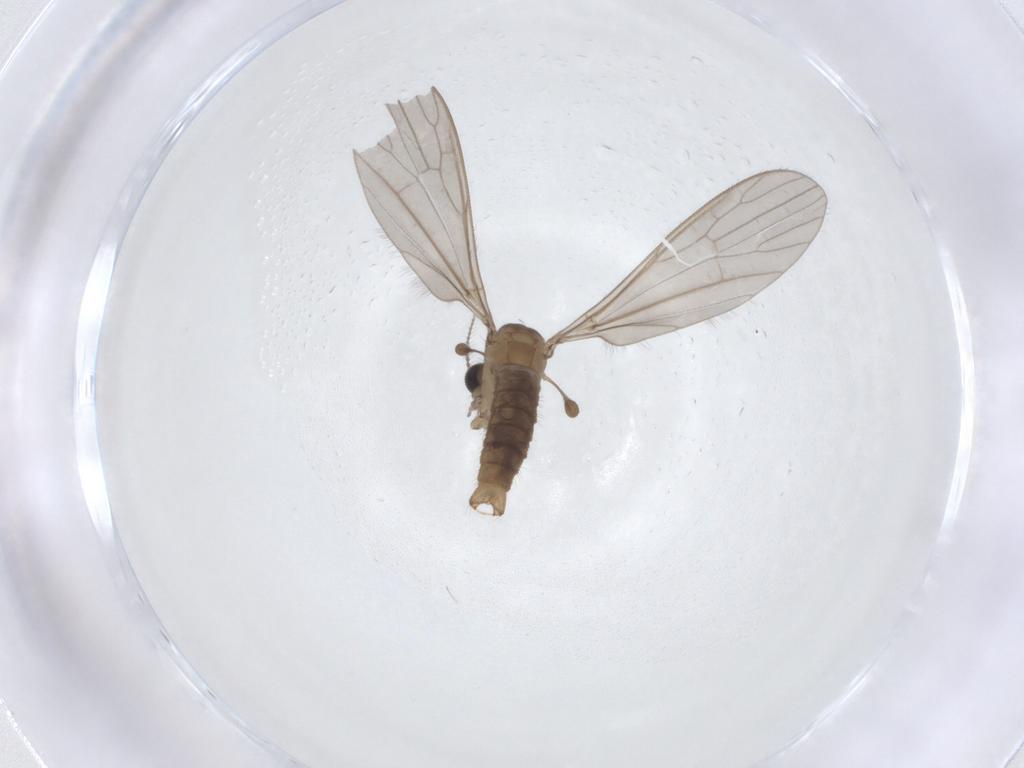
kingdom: Animalia
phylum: Arthropoda
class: Insecta
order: Diptera
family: Limoniidae
